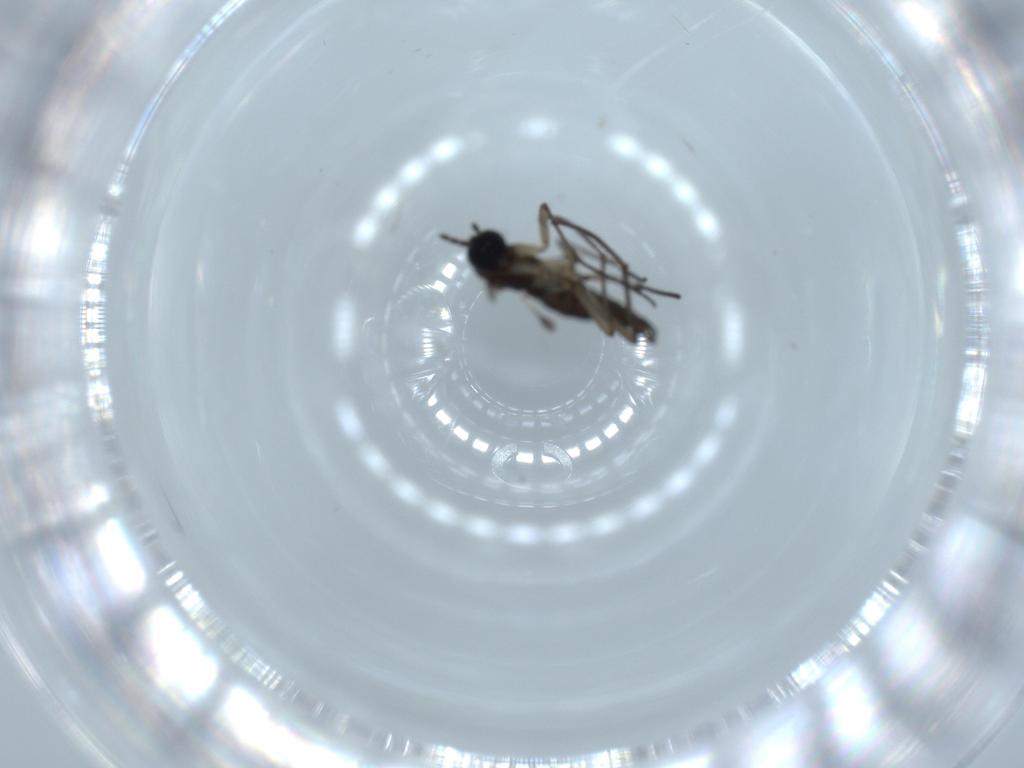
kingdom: Animalia
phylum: Arthropoda
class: Insecta
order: Diptera
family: Sciaridae
